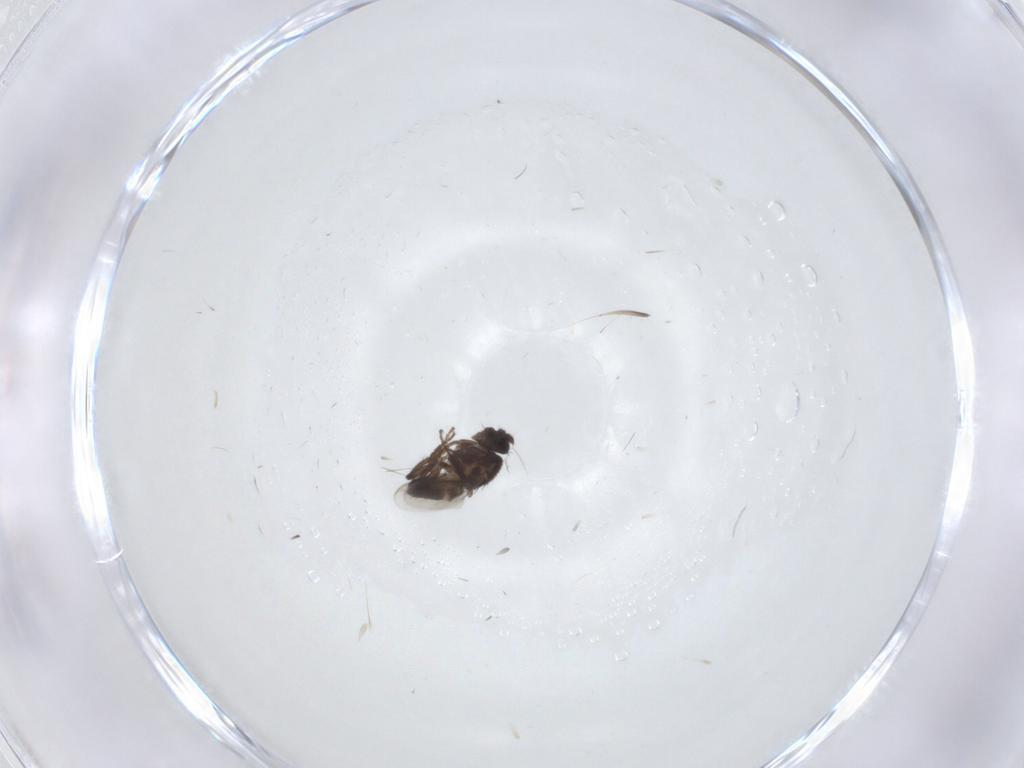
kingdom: Animalia
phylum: Arthropoda
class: Insecta
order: Diptera
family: Cecidomyiidae
